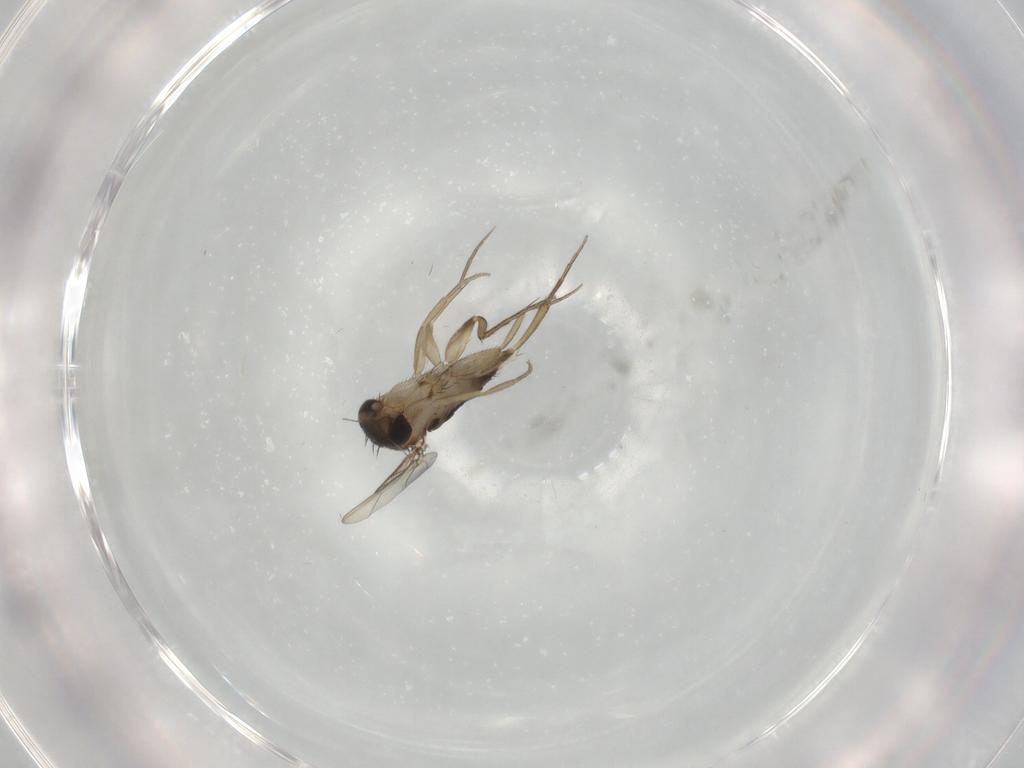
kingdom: Animalia
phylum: Arthropoda
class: Insecta
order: Diptera
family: Phoridae
